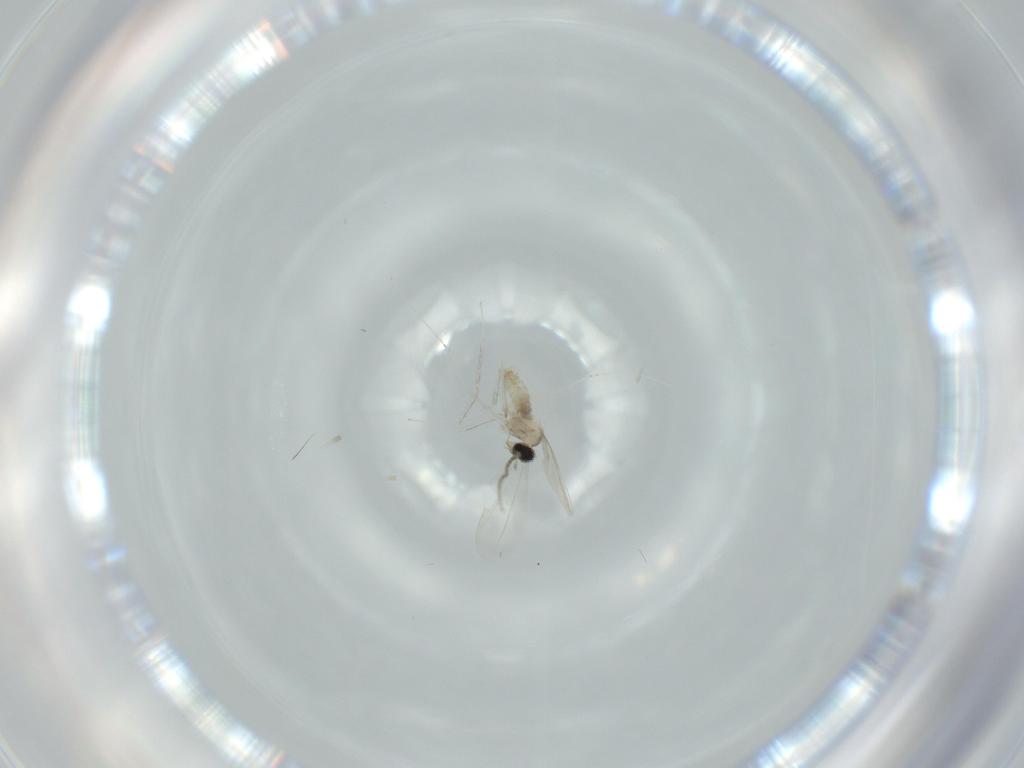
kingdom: Animalia
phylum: Arthropoda
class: Insecta
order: Diptera
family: Cecidomyiidae
